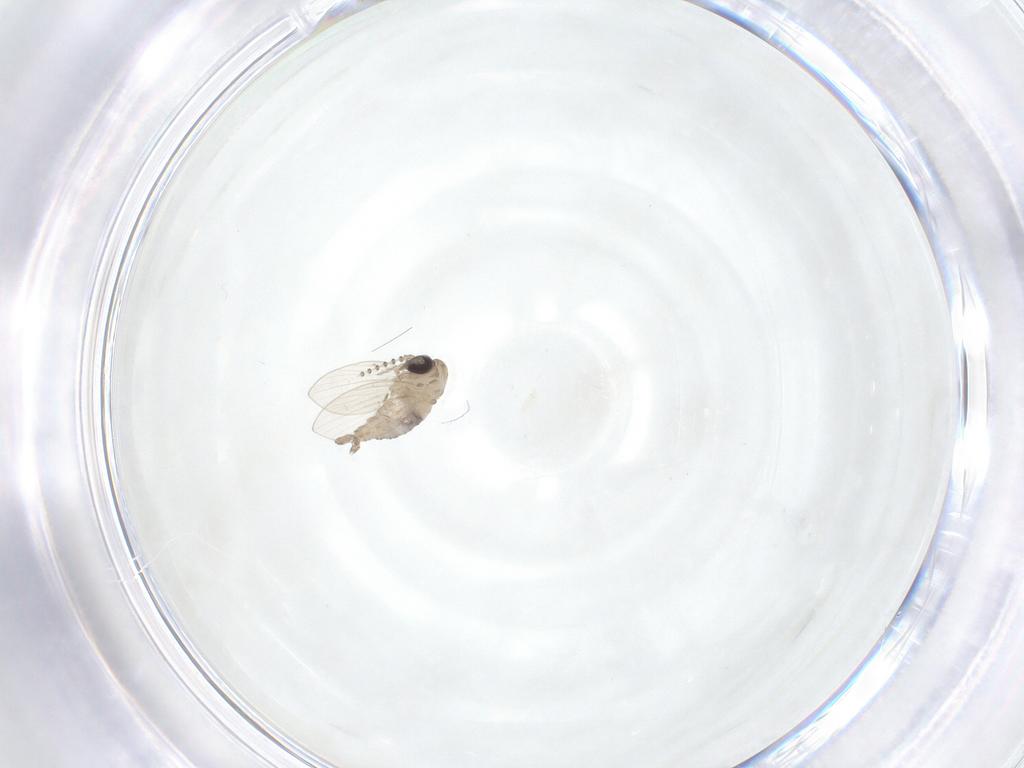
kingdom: Animalia
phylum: Arthropoda
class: Insecta
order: Diptera
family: Psychodidae
